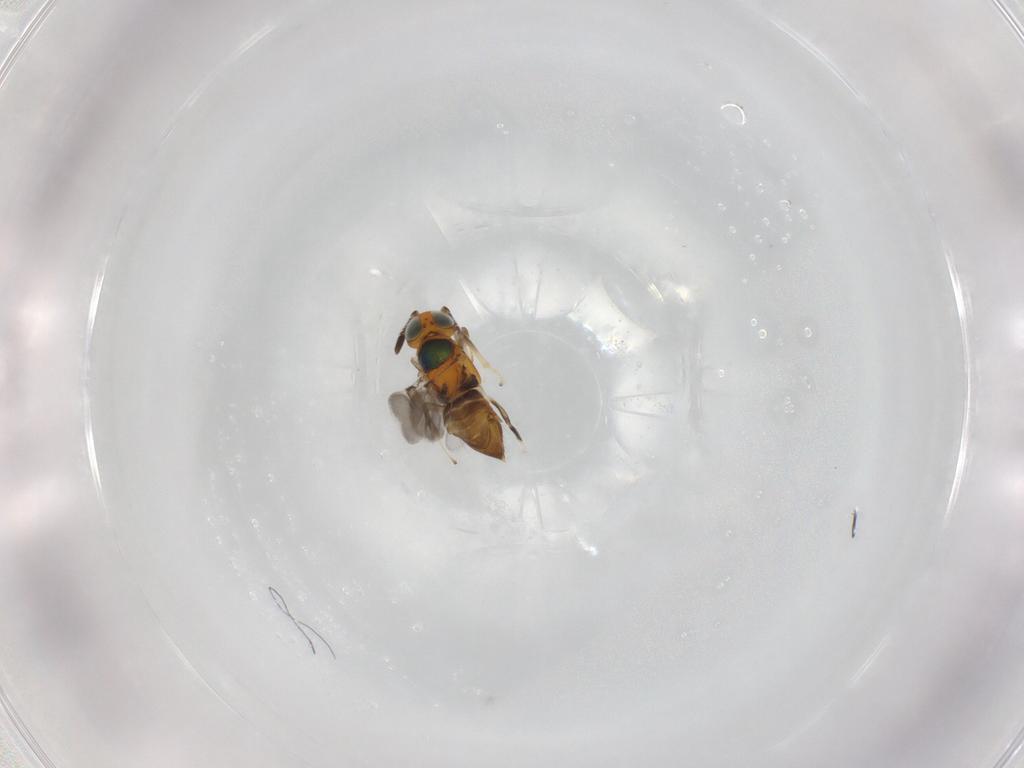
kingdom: Animalia
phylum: Arthropoda
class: Insecta
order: Hymenoptera
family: Encyrtidae
